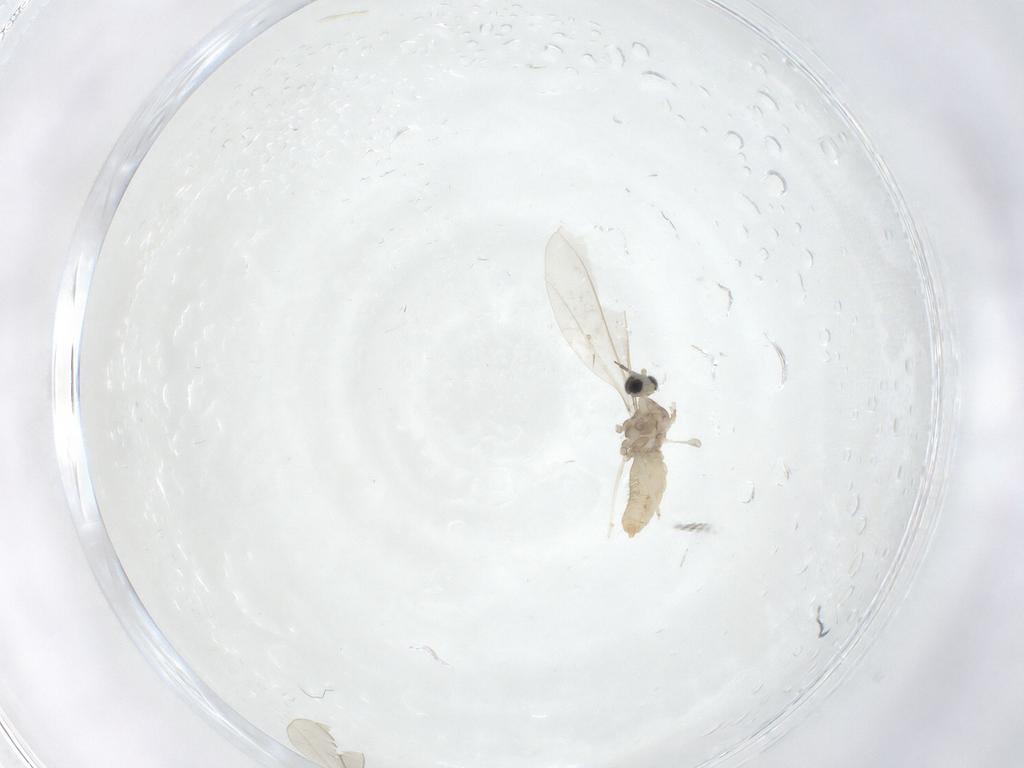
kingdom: Animalia
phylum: Arthropoda
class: Insecta
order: Diptera
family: Cecidomyiidae
